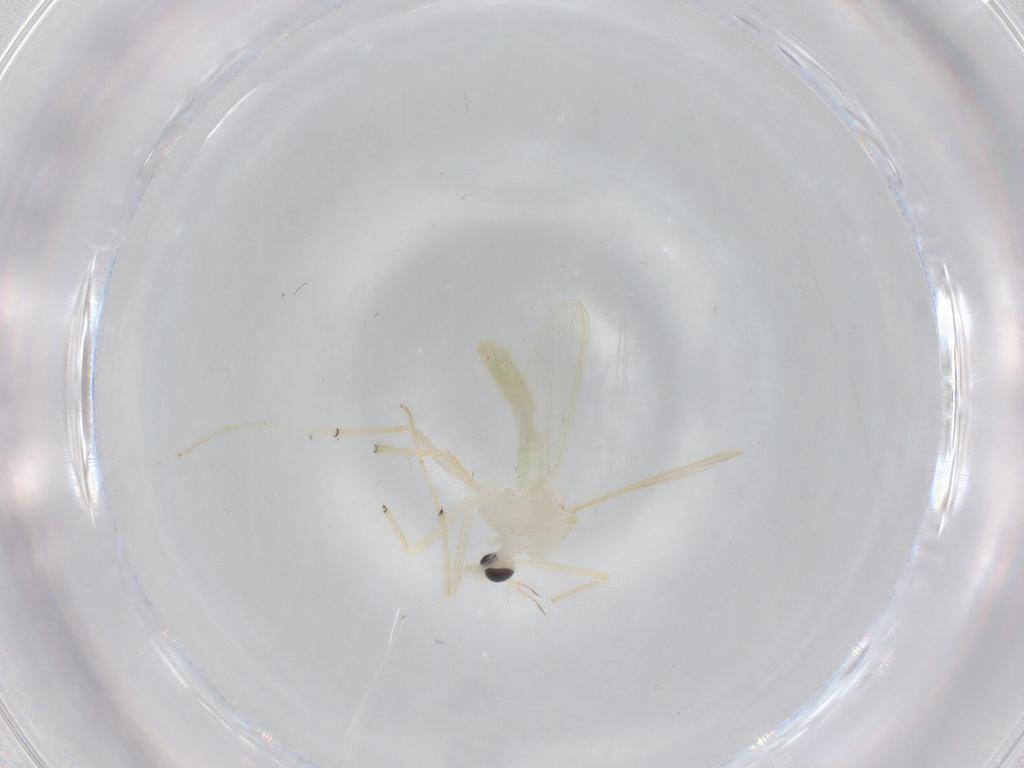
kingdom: Animalia
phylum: Arthropoda
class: Insecta
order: Diptera
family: Chironomidae
